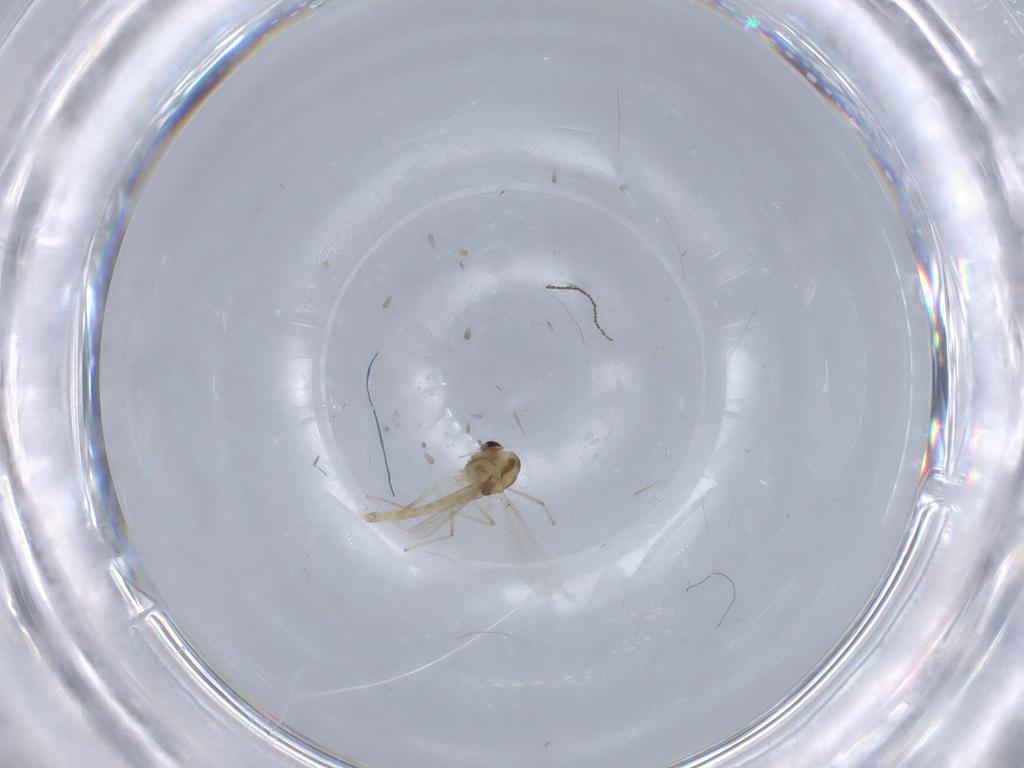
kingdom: Animalia
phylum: Arthropoda
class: Insecta
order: Diptera
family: Chironomidae
